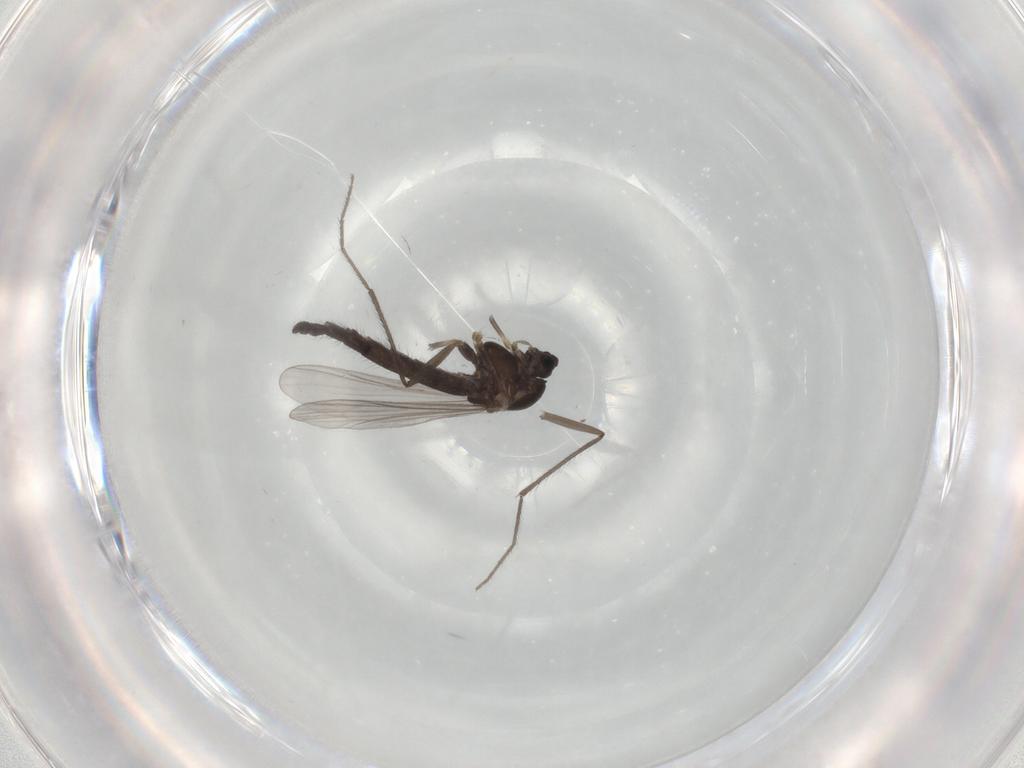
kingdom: Animalia
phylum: Arthropoda
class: Insecta
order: Diptera
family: Chironomidae
